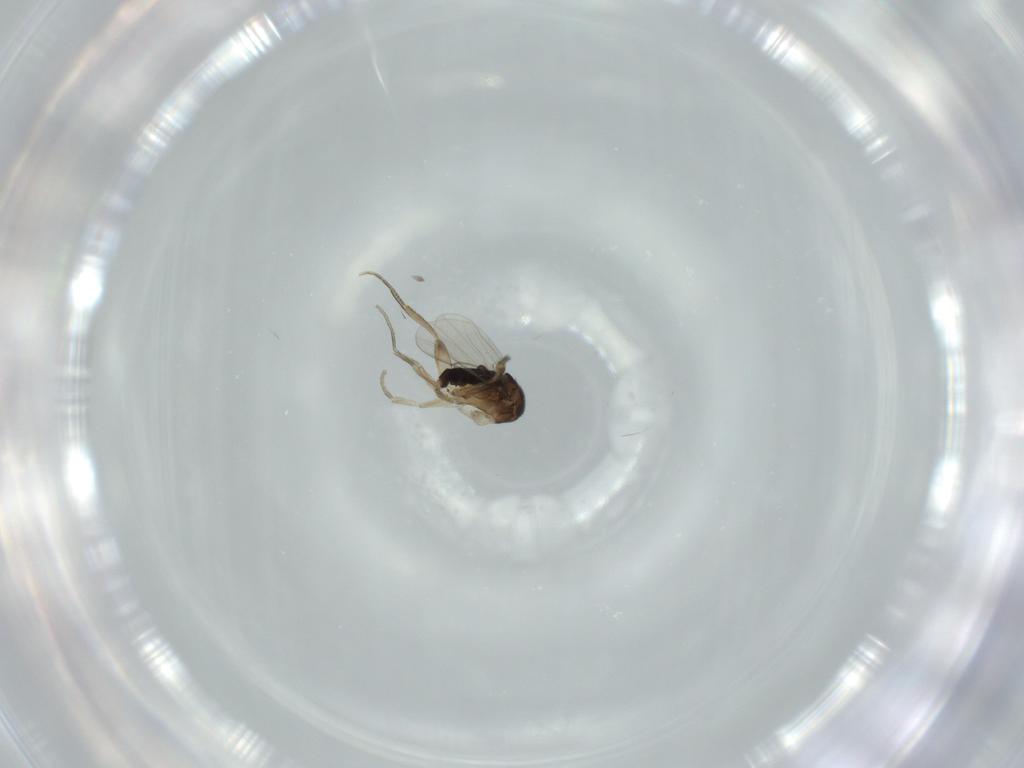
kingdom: Animalia
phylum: Arthropoda
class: Insecta
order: Diptera
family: Phoridae
